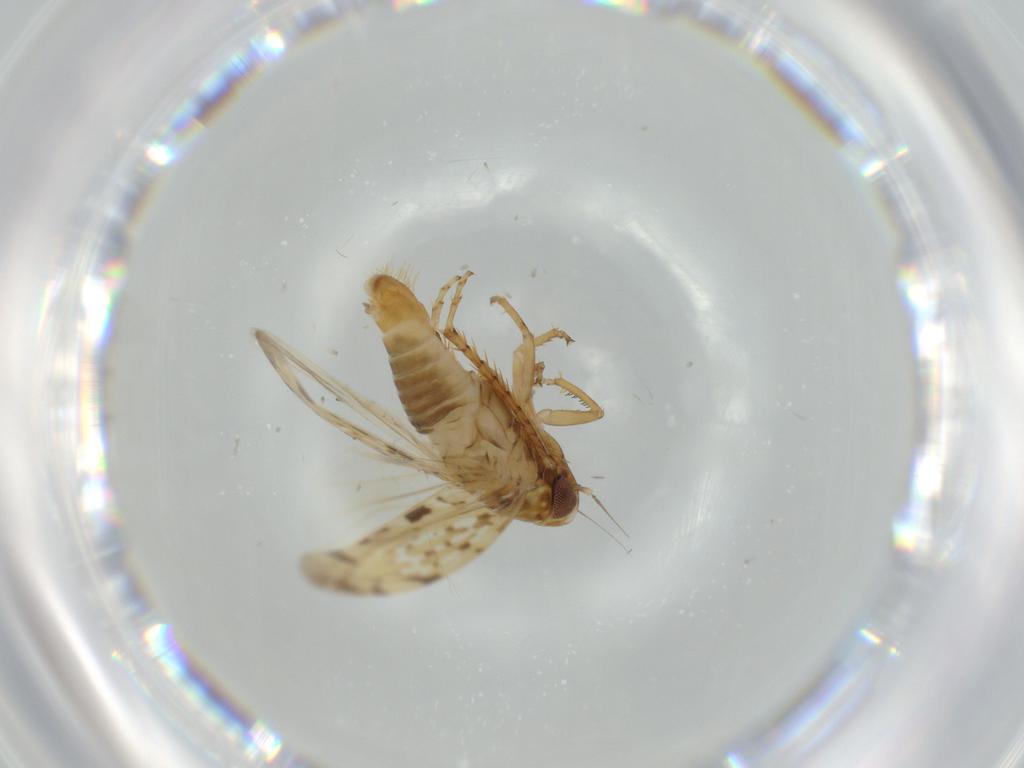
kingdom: Animalia
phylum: Arthropoda
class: Insecta
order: Hemiptera
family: Cicadellidae
